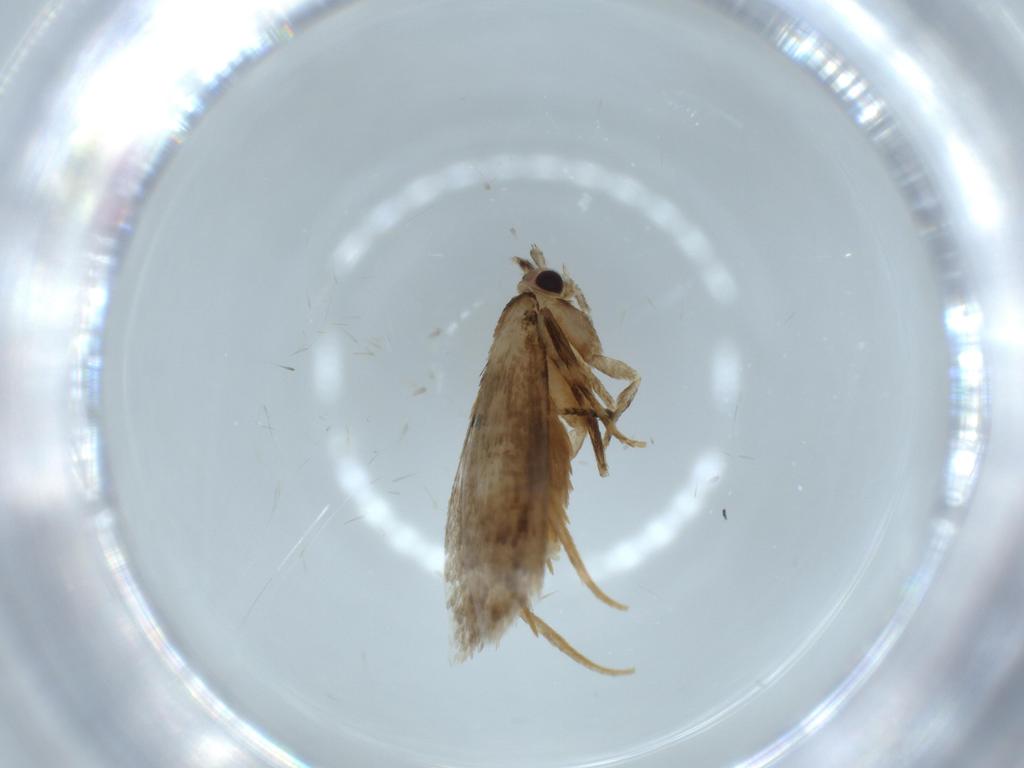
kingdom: Animalia
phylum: Arthropoda
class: Insecta
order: Lepidoptera
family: Tineidae
